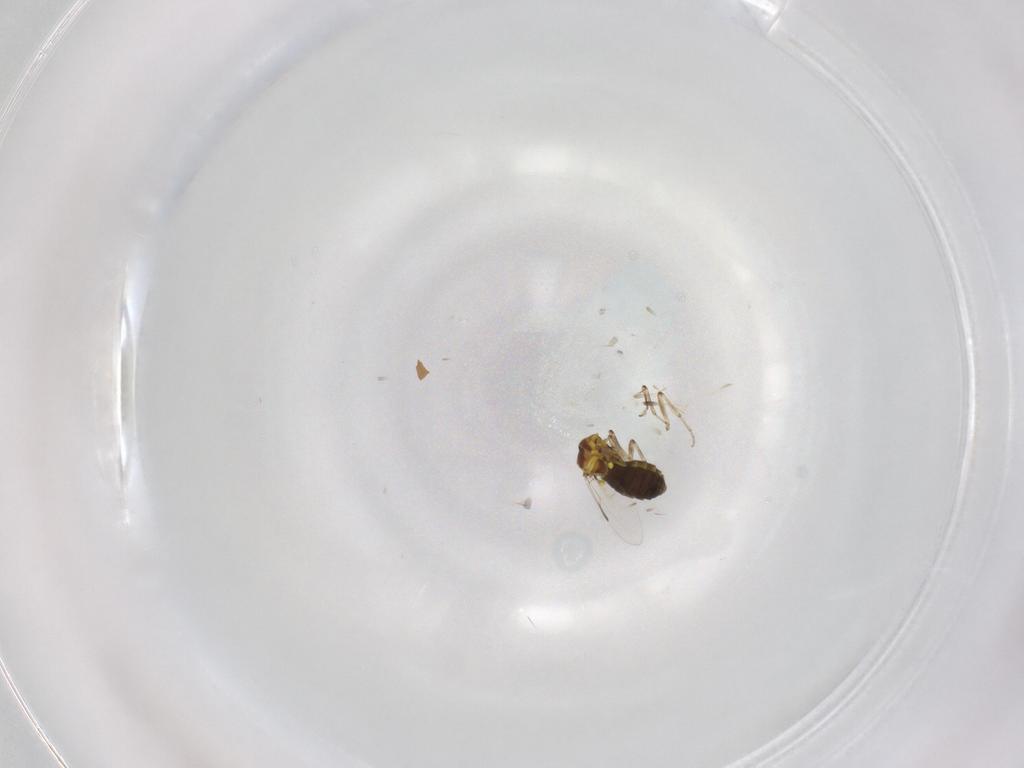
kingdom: Animalia
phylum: Arthropoda
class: Insecta
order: Diptera
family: Ceratopogonidae
